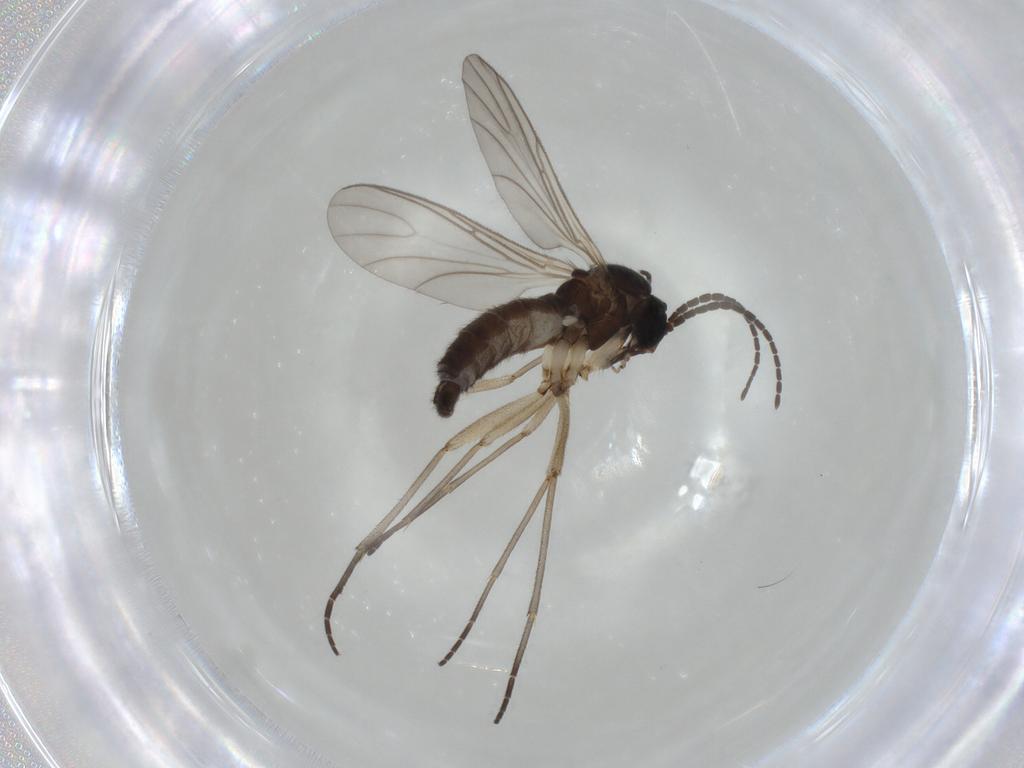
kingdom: Animalia
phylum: Arthropoda
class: Insecta
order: Diptera
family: Sciaridae
